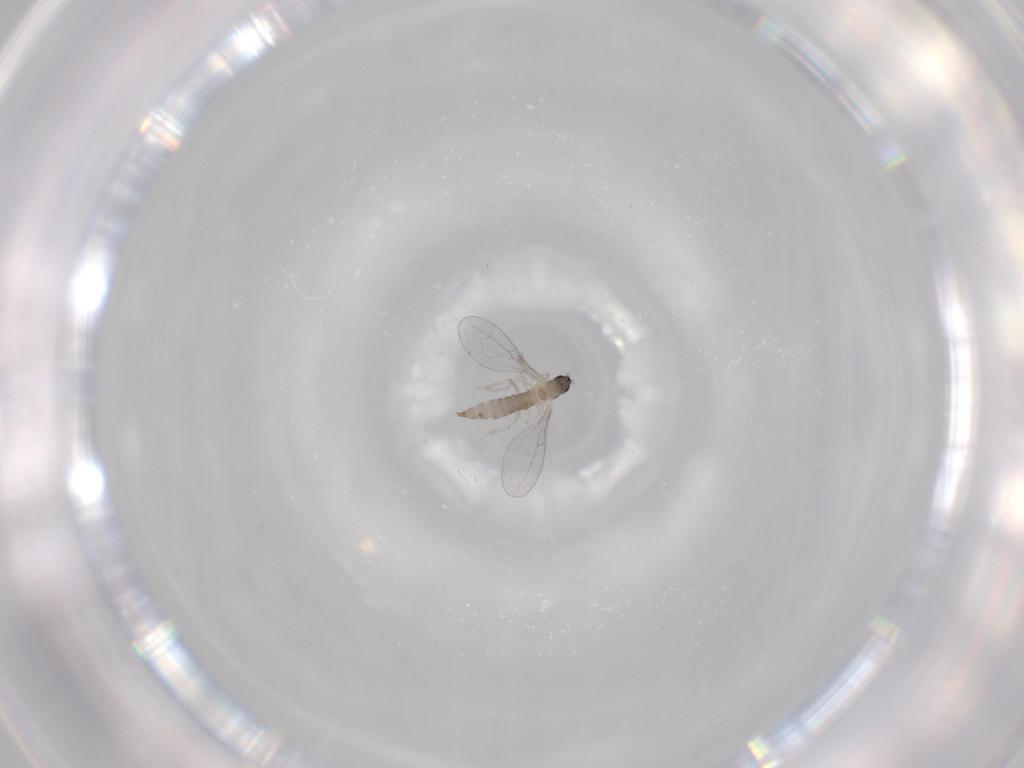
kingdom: Animalia
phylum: Arthropoda
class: Insecta
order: Diptera
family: Cecidomyiidae
